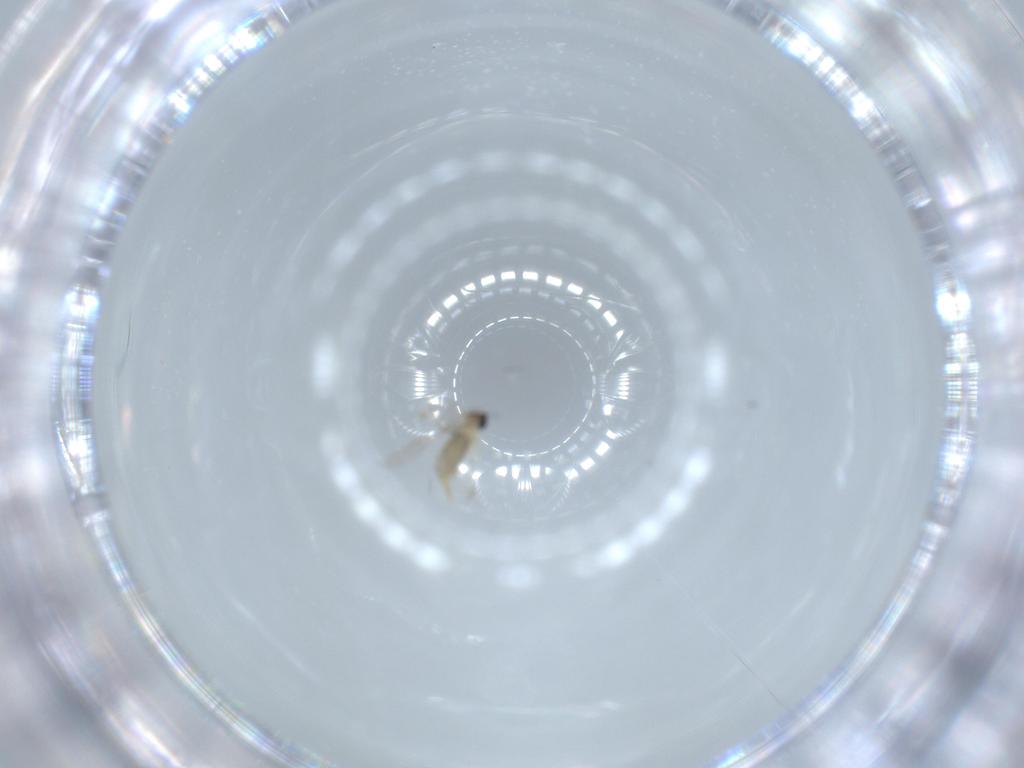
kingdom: Animalia
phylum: Arthropoda
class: Insecta
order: Diptera
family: Sciaridae
